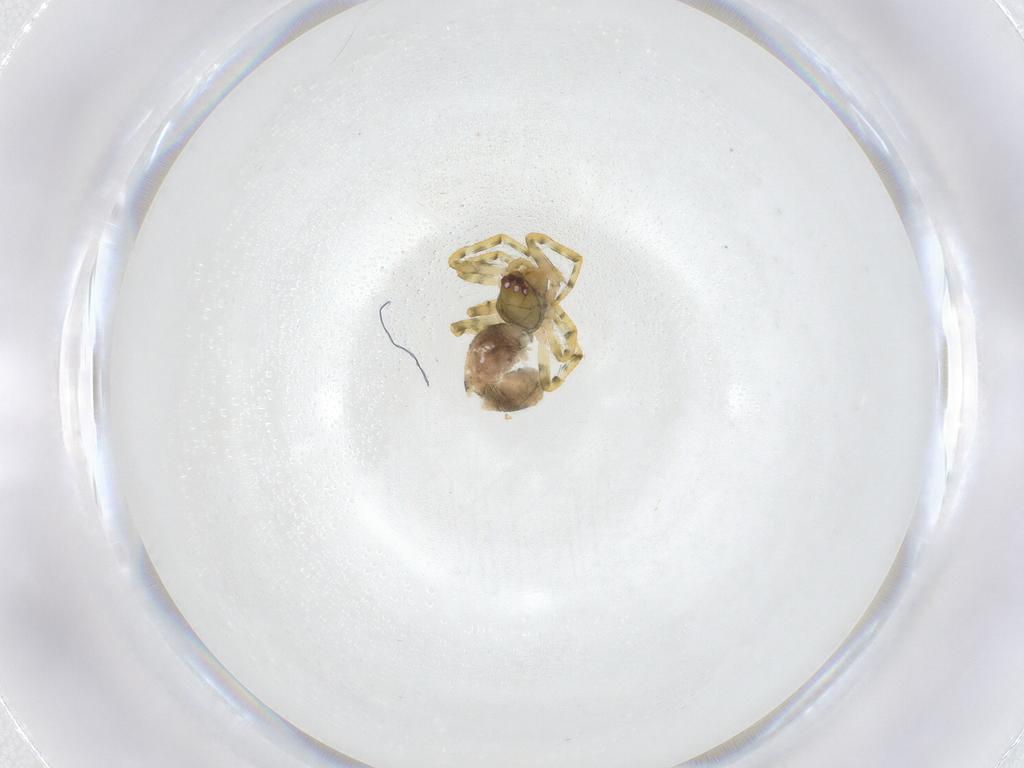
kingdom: Animalia
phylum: Arthropoda
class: Arachnida
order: Araneae
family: Theridiidae
